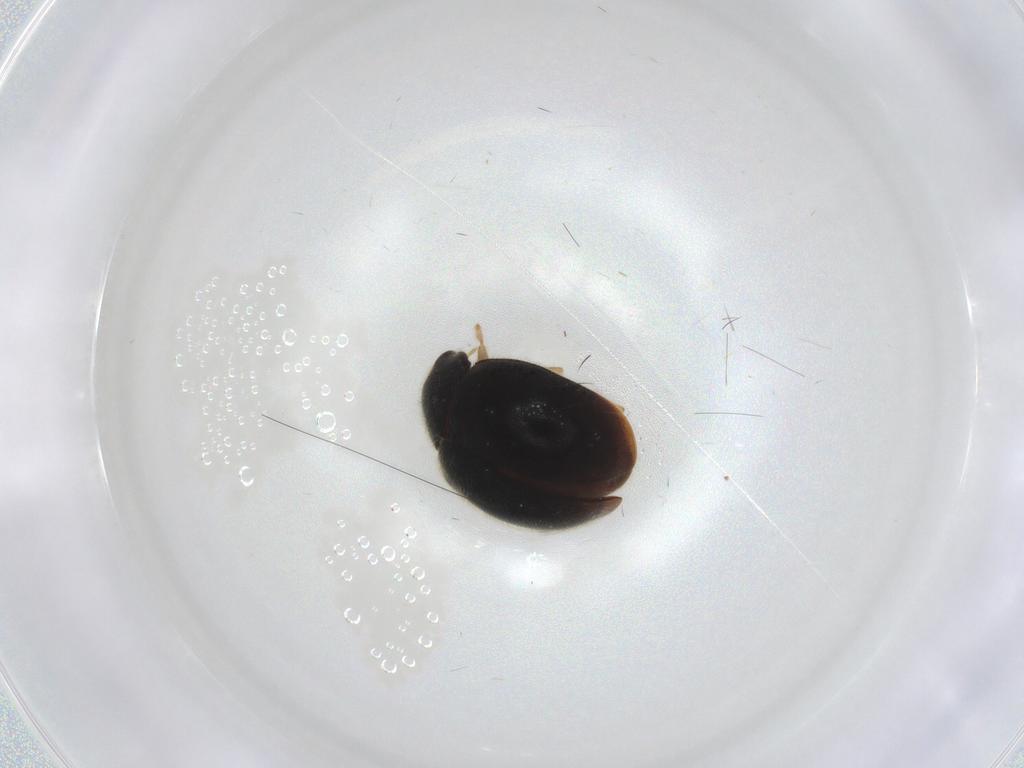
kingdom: Animalia
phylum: Arthropoda
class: Insecta
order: Coleoptera
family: Coccinellidae
